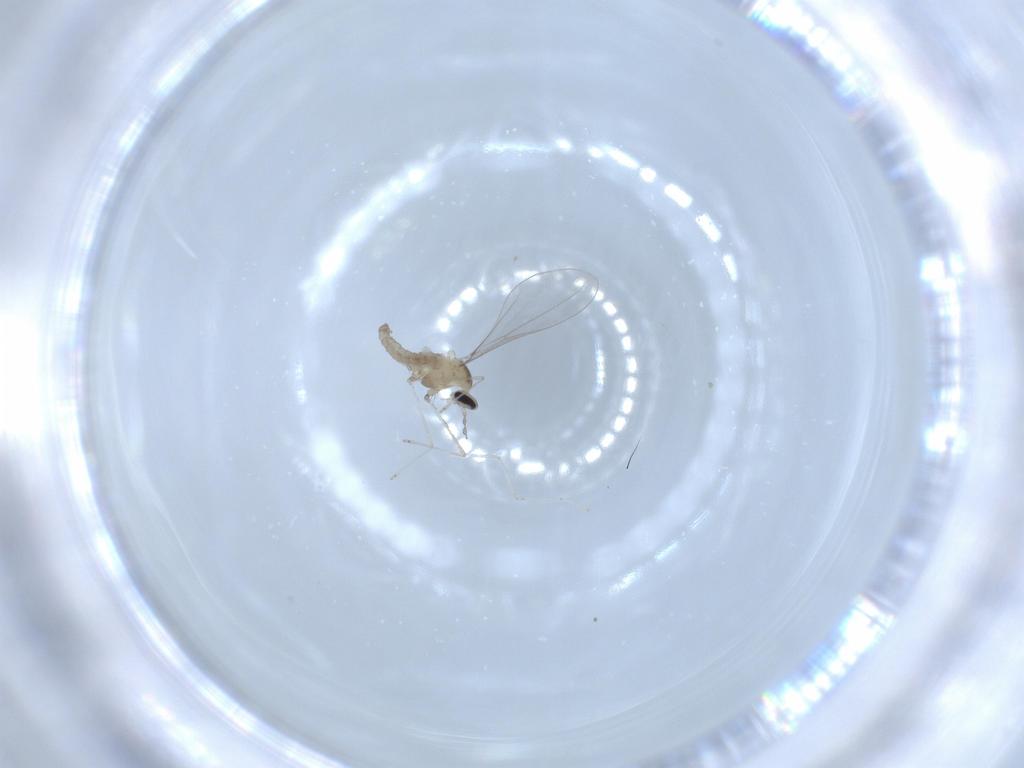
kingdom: Animalia
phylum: Arthropoda
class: Insecta
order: Diptera
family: Cecidomyiidae
